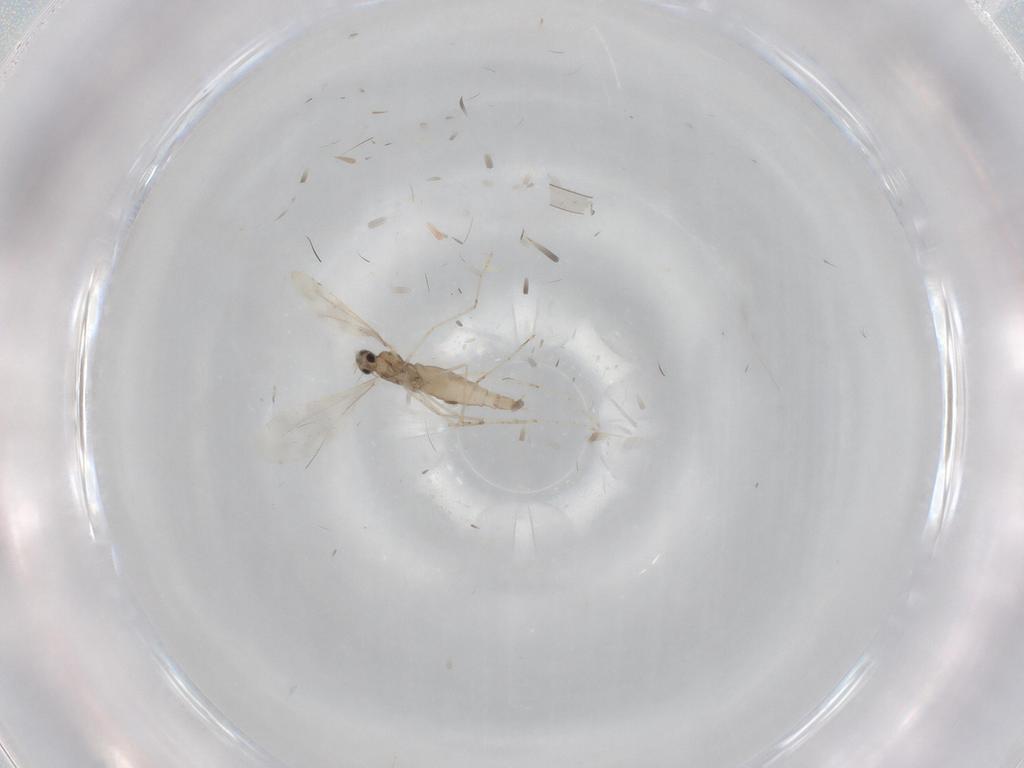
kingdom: Animalia
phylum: Arthropoda
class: Insecta
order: Diptera
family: Cecidomyiidae
